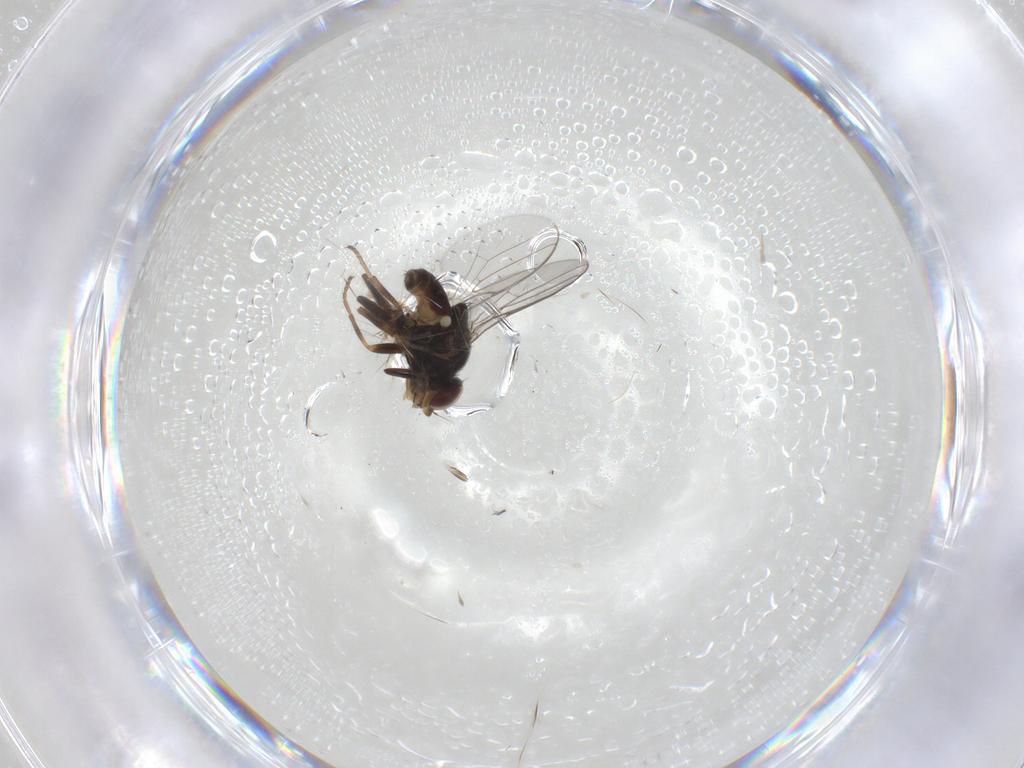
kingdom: Animalia
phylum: Arthropoda
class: Insecta
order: Diptera
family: Chloropidae
